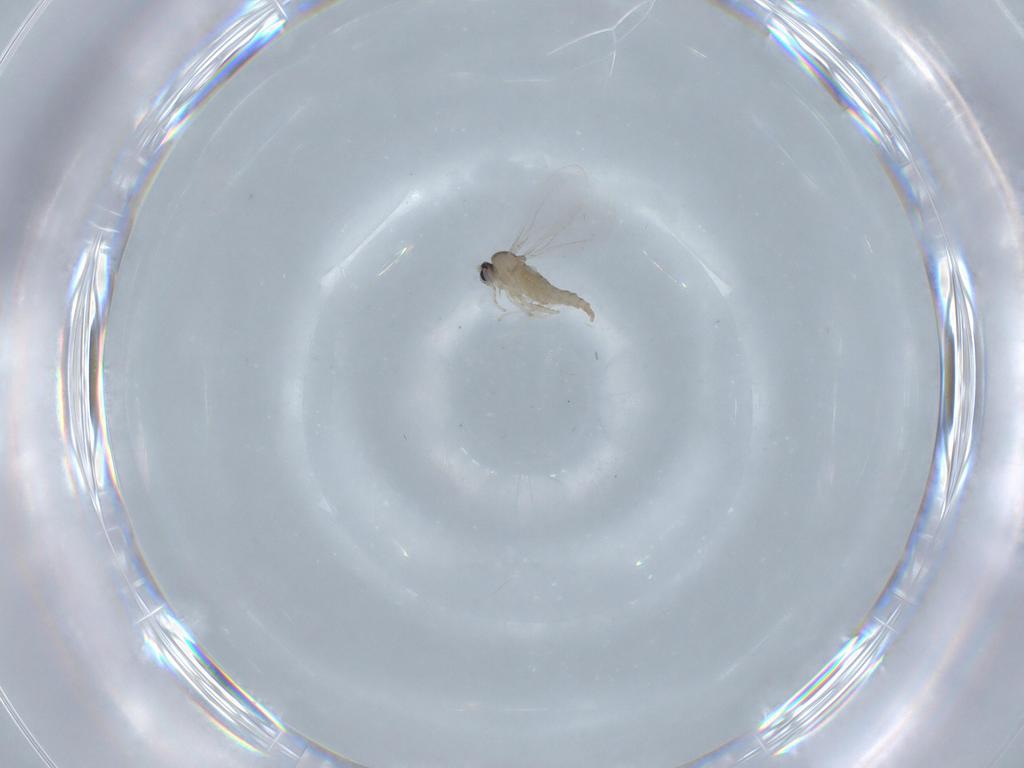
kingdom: Animalia
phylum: Arthropoda
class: Insecta
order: Diptera
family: Cecidomyiidae
